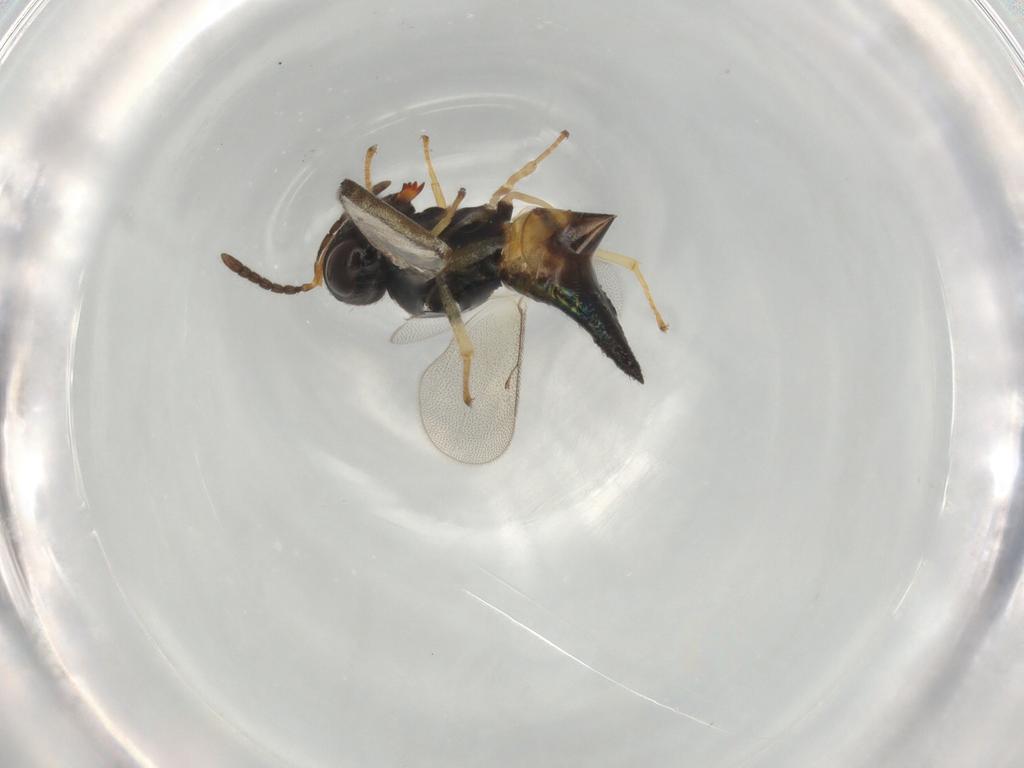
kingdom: Animalia
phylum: Arthropoda
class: Insecta
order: Hymenoptera
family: Pteromalidae
